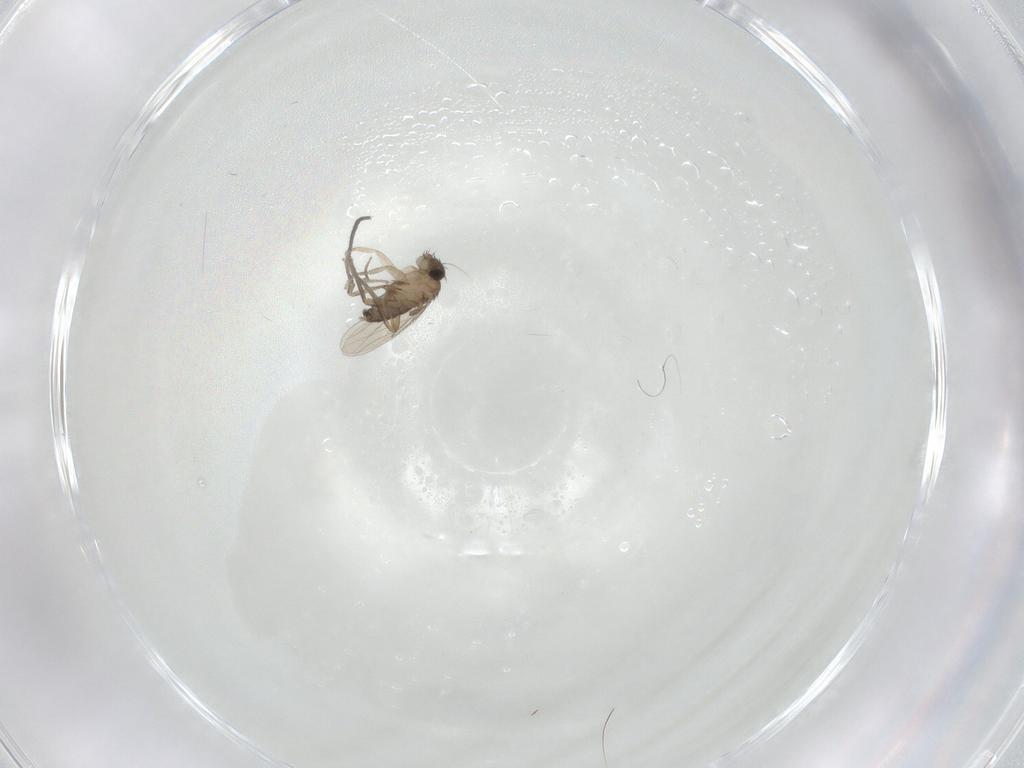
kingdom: Animalia
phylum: Arthropoda
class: Insecta
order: Diptera
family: Sciaridae
